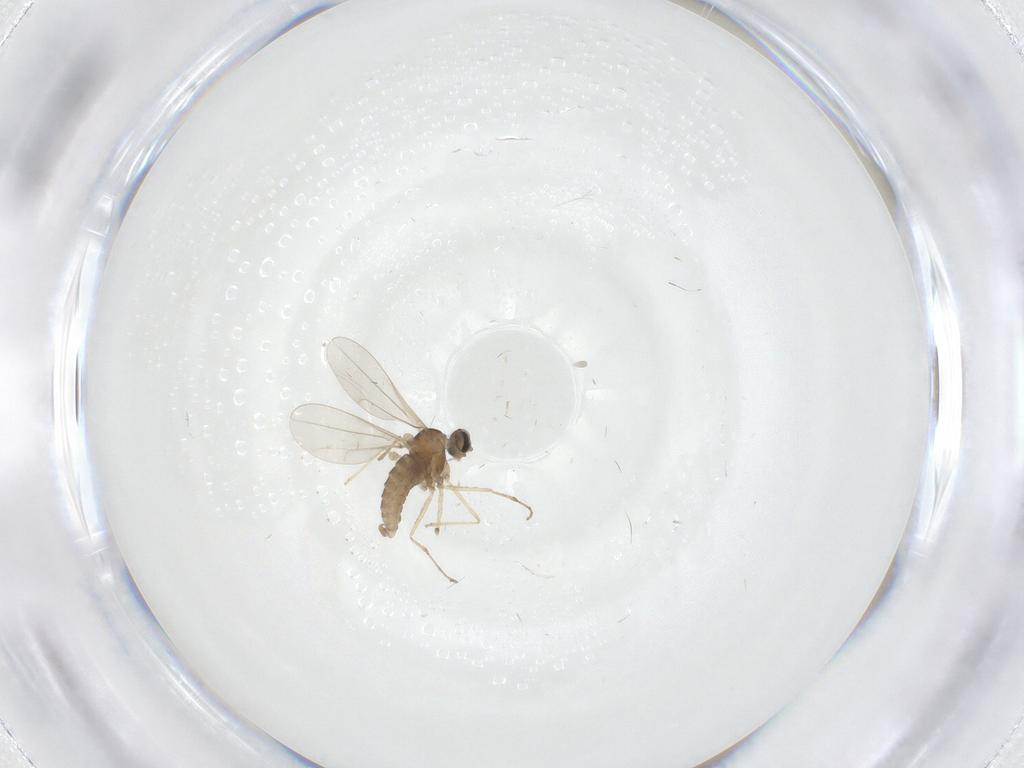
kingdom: Animalia
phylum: Arthropoda
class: Insecta
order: Diptera
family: Cecidomyiidae
